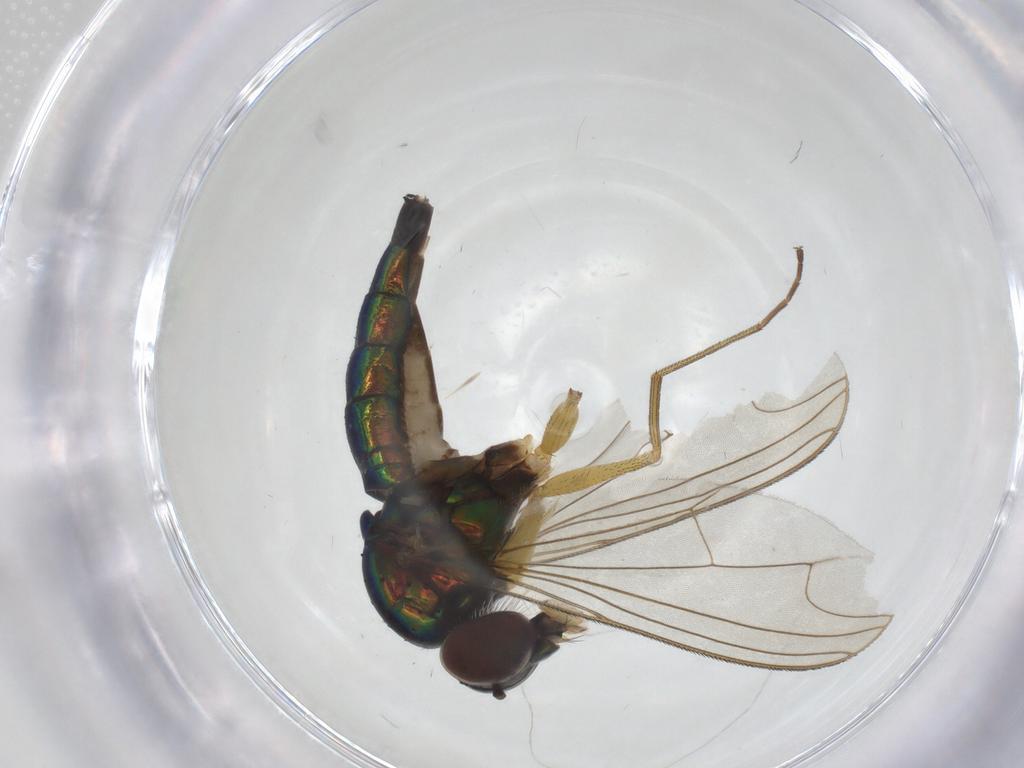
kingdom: Animalia
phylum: Arthropoda
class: Insecta
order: Diptera
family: Dolichopodidae
